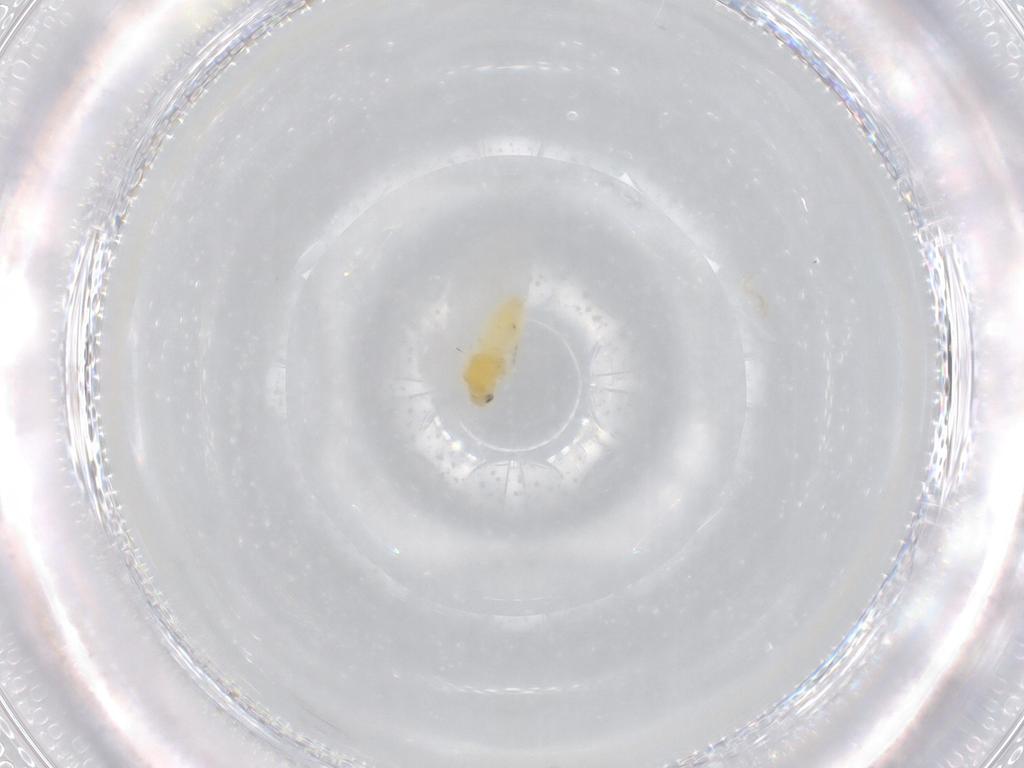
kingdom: Animalia
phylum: Arthropoda
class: Insecta
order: Hemiptera
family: Aleyrodidae
